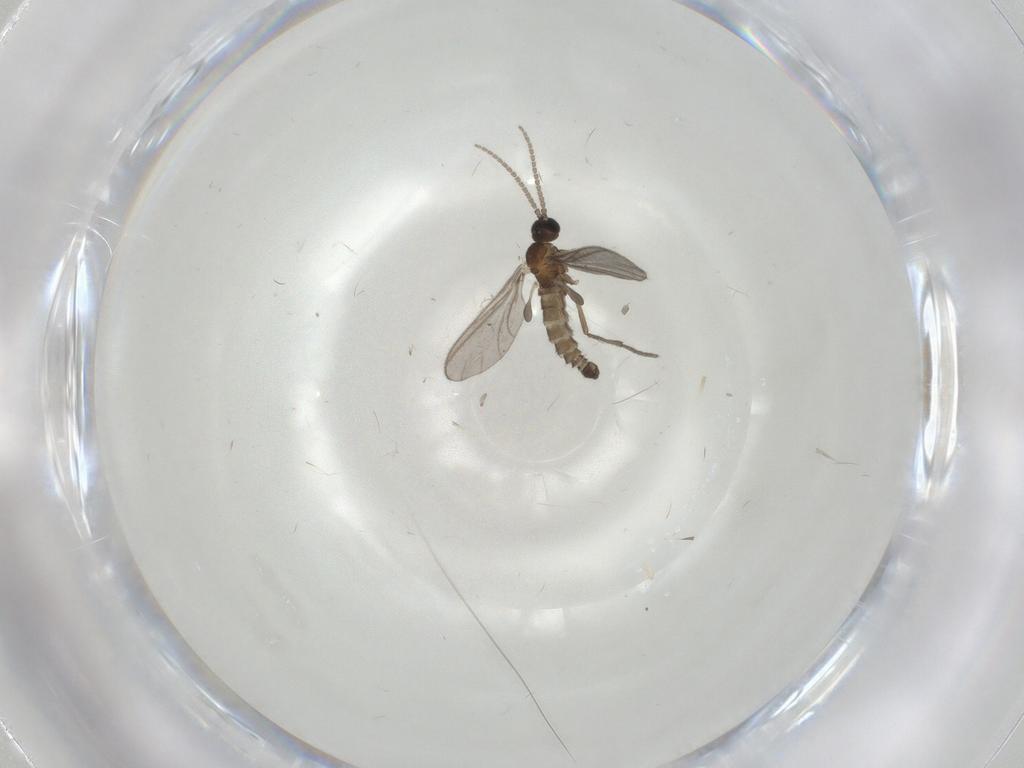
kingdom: Animalia
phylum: Arthropoda
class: Insecta
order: Diptera
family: Sciaridae
